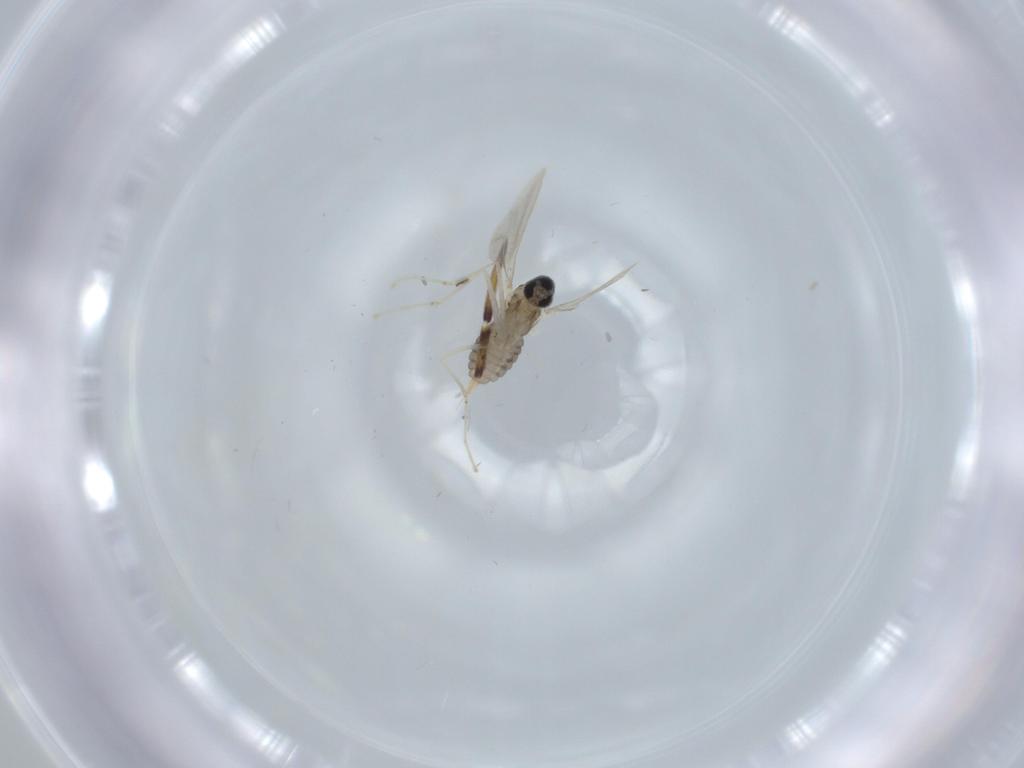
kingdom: Animalia
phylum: Arthropoda
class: Insecta
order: Diptera
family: Cecidomyiidae
